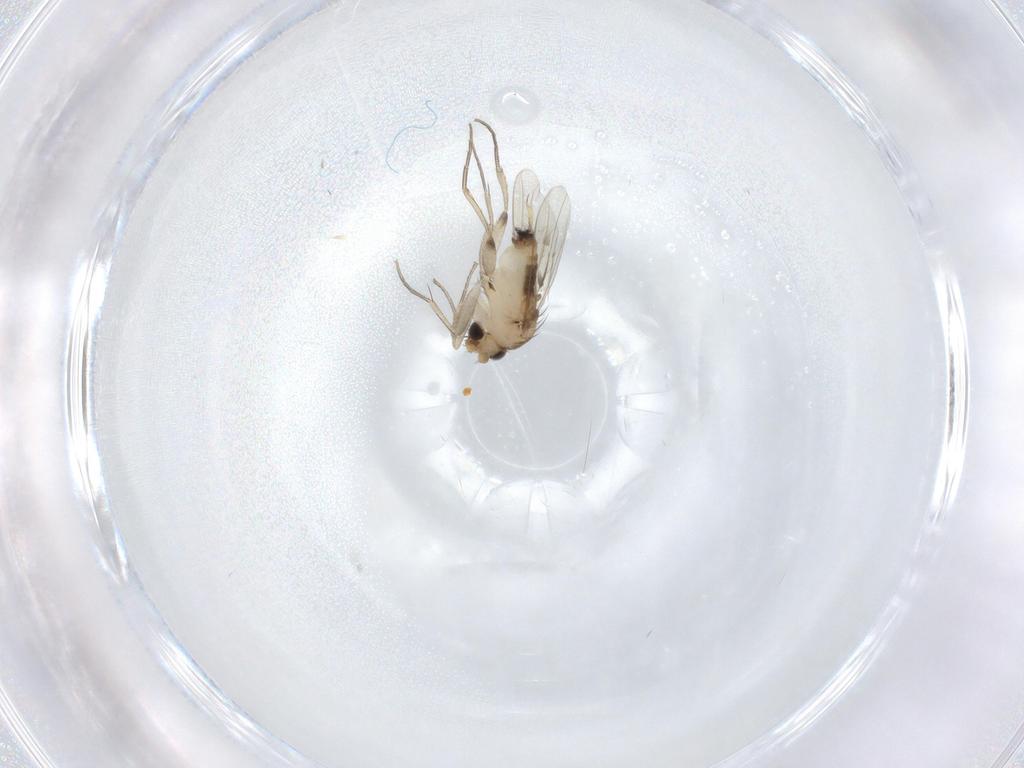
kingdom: Animalia
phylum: Arthropoda
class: Insecta
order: Diptera
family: Phoridae
